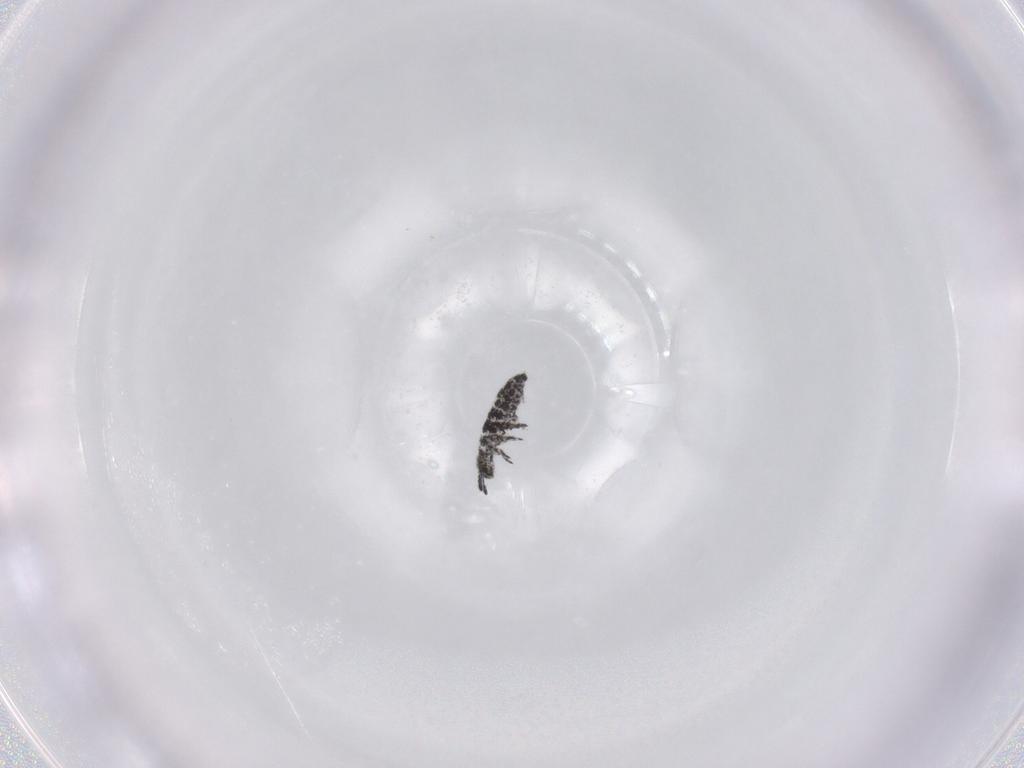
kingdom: Animalia
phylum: Arthropoda
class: Collembola
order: Poduromorpha
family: Hypogastruridae
